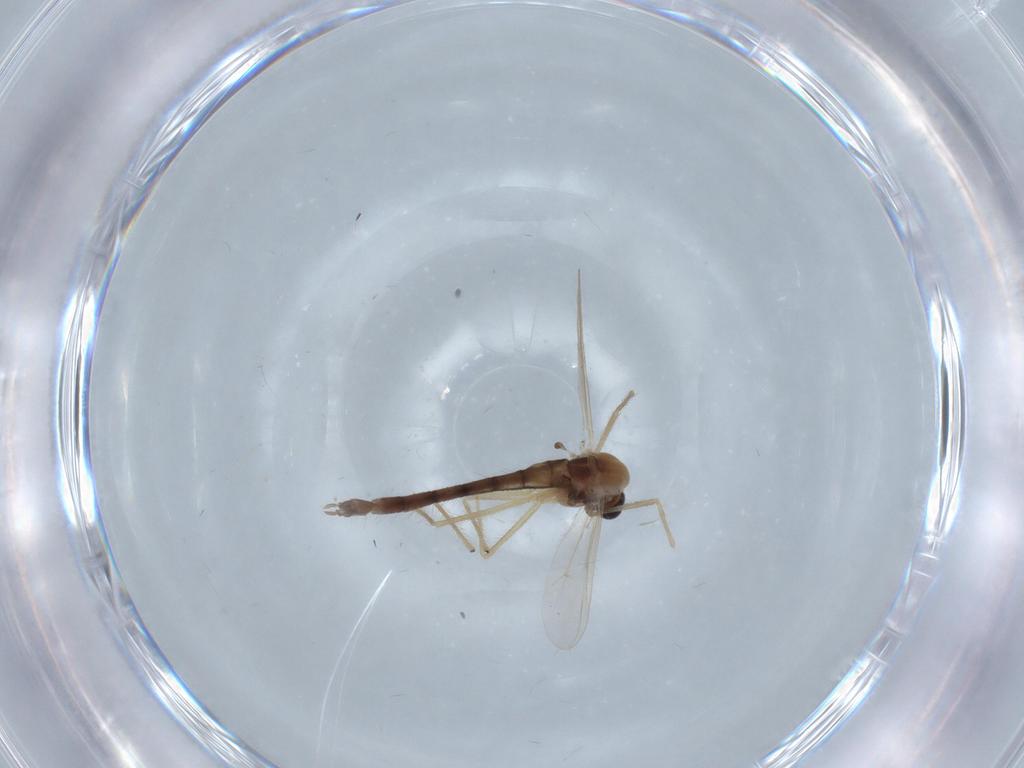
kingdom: Animalia
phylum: Arthropoda
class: Insecta
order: Diptera
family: Chironomidae
